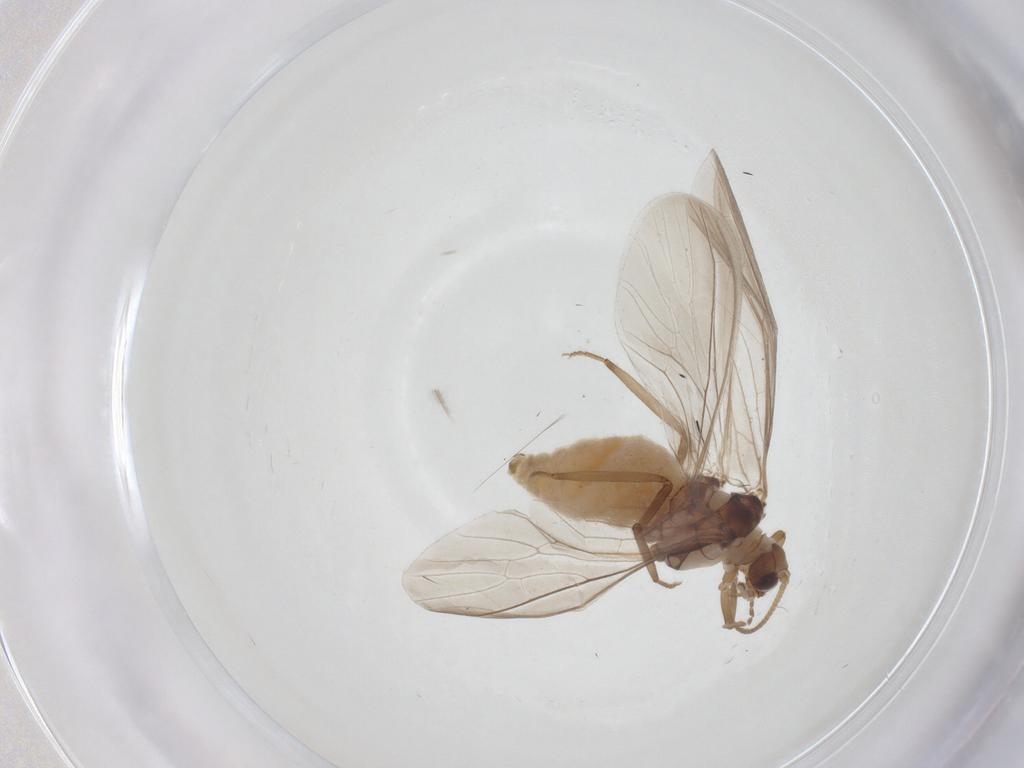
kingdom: Animalia
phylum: Arthropoda
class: Insecta
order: Neuroptera
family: Coniopterygidae
